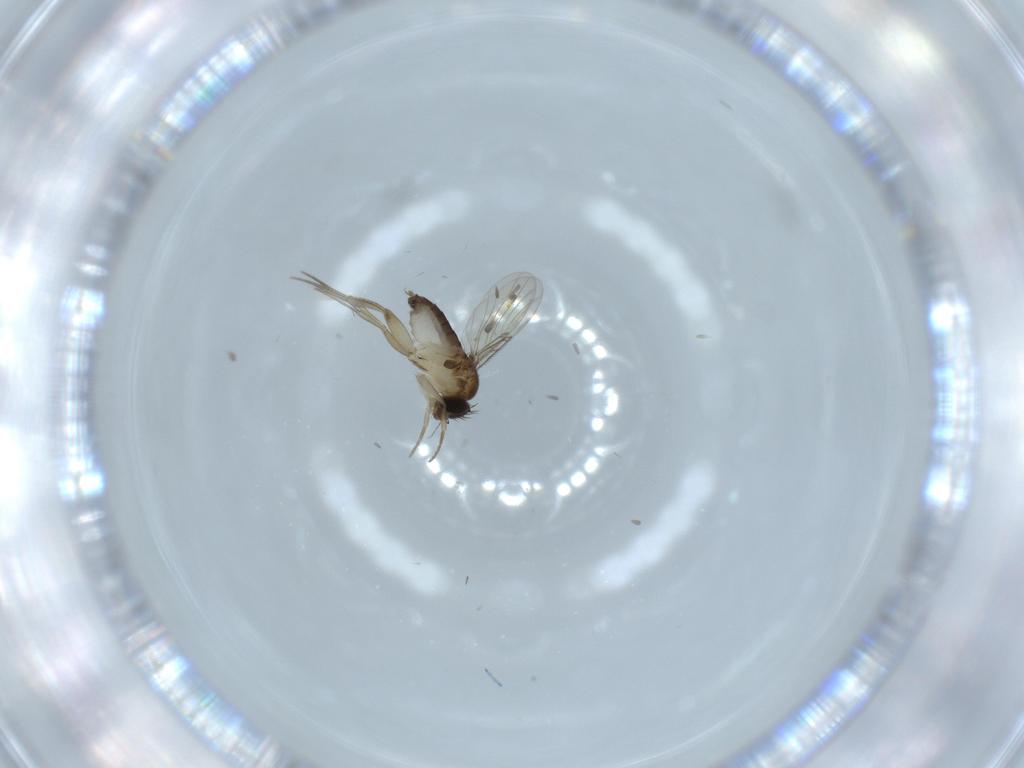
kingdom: Animalia
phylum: Arthropoda
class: Insecta
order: Diptera
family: Phoridae
